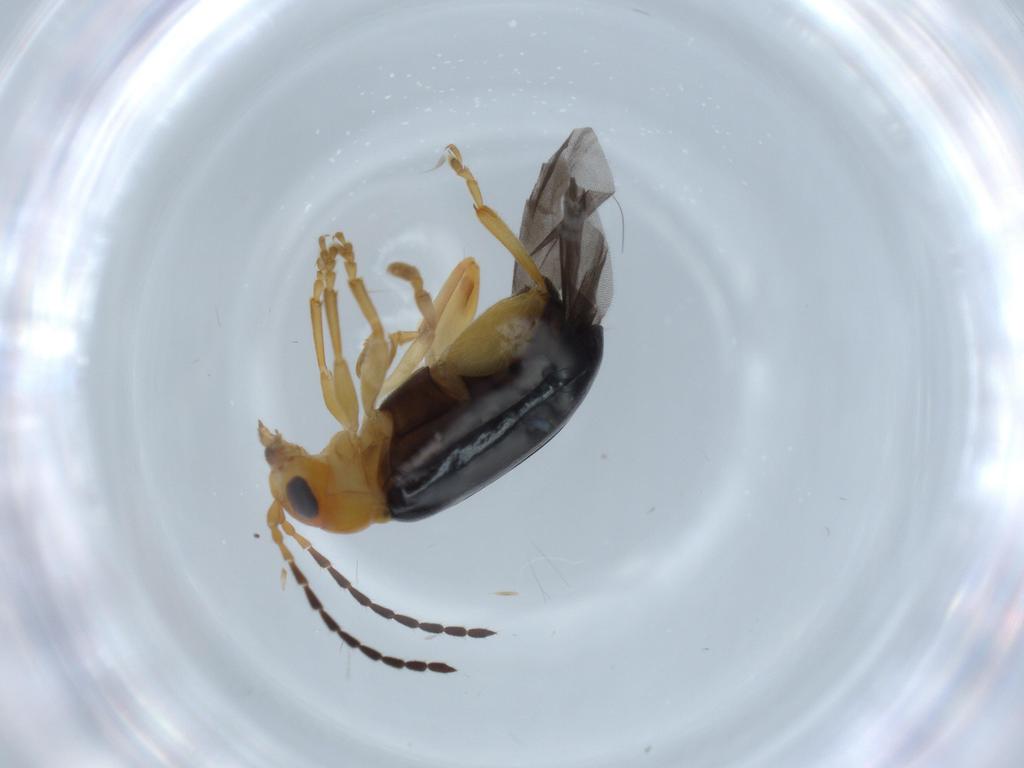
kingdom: Animalia
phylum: Arthropoda
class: Insecta
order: Coleoptera
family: Chrysomelidae
